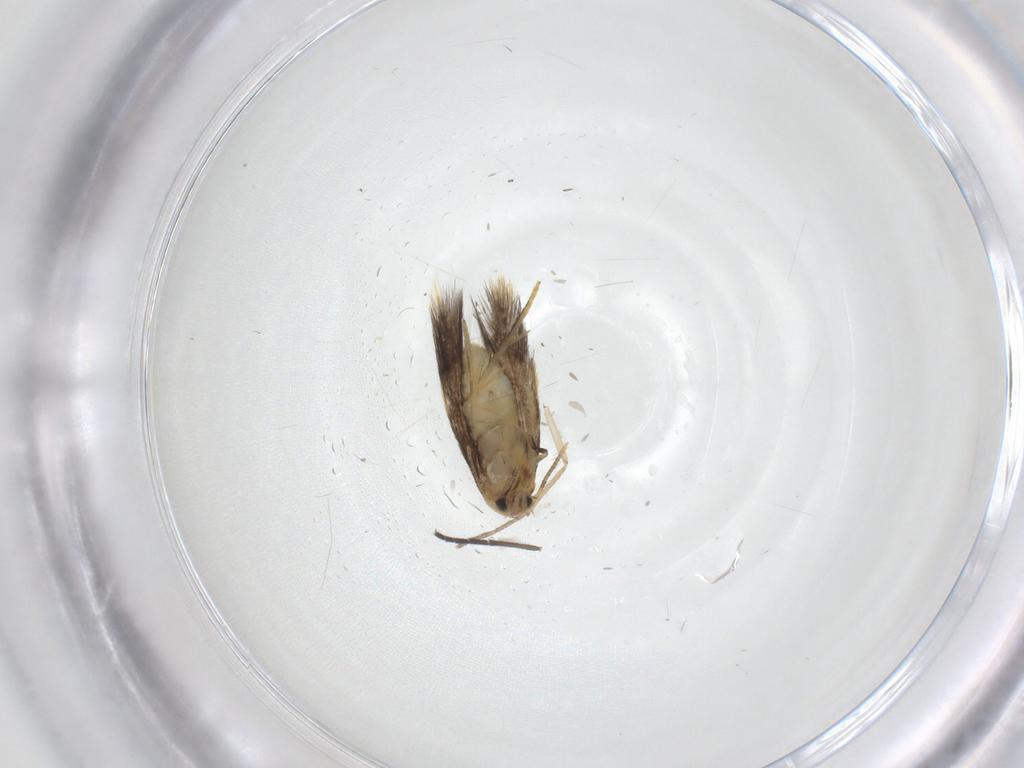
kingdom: Animalia
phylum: Arthropoda
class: Insecta
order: Lepidoptera
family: Copromorphidae
